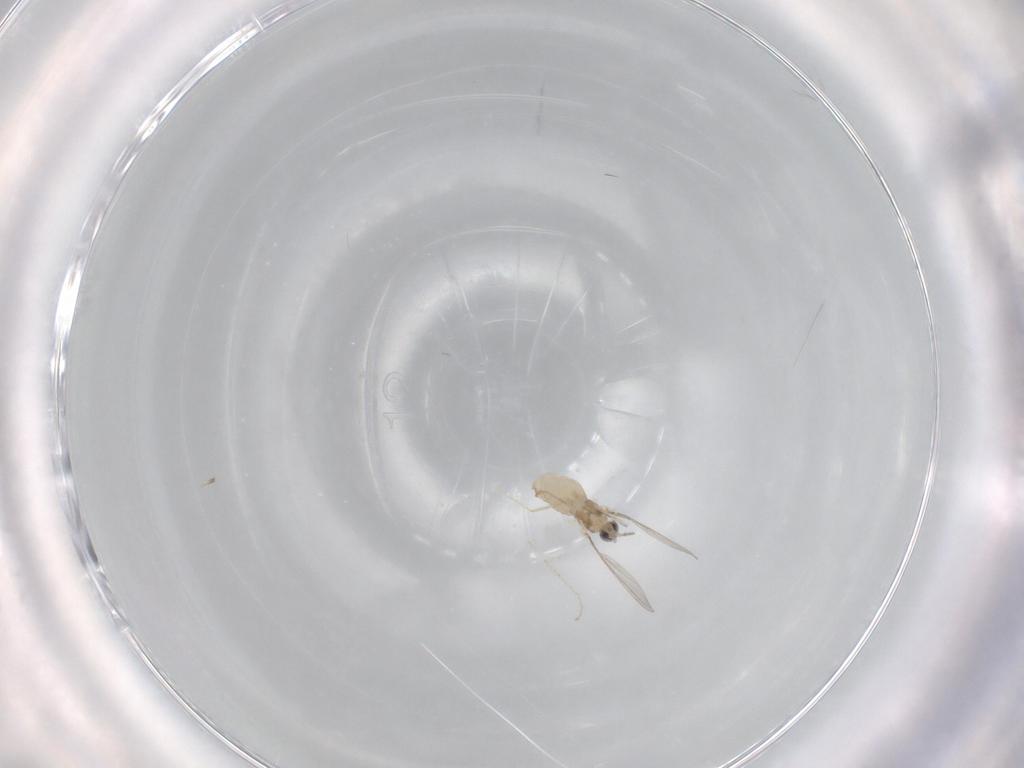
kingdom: Animalia
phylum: Arthropoda
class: Insecta
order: Diptera
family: Cecidomyiidae
